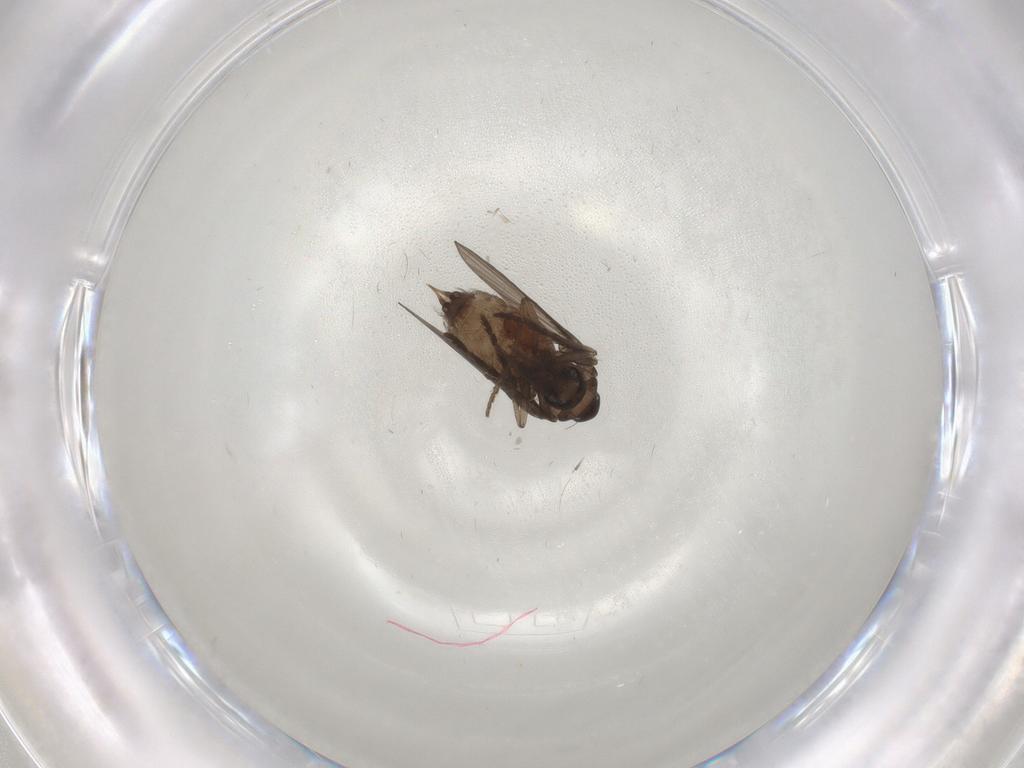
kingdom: Animalia
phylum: Arthropoda
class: Insecta
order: Diptera
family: Psychodidae
